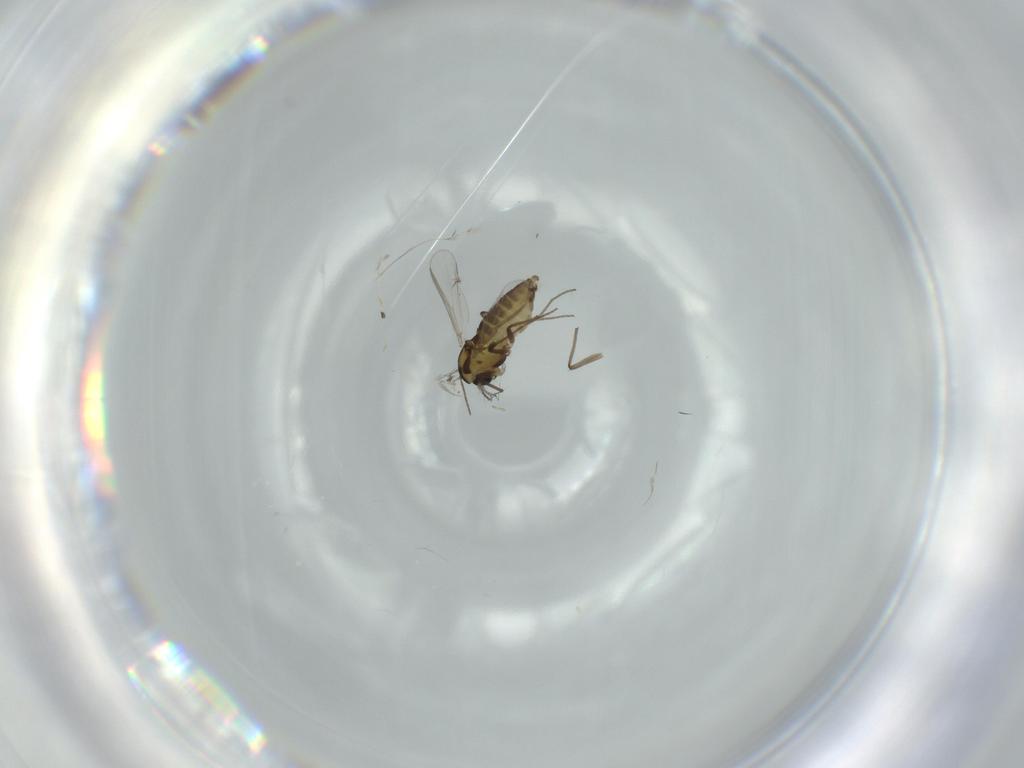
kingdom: Animalia
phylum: Arthropoda
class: Insecta
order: Diptera
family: Chironomidae
